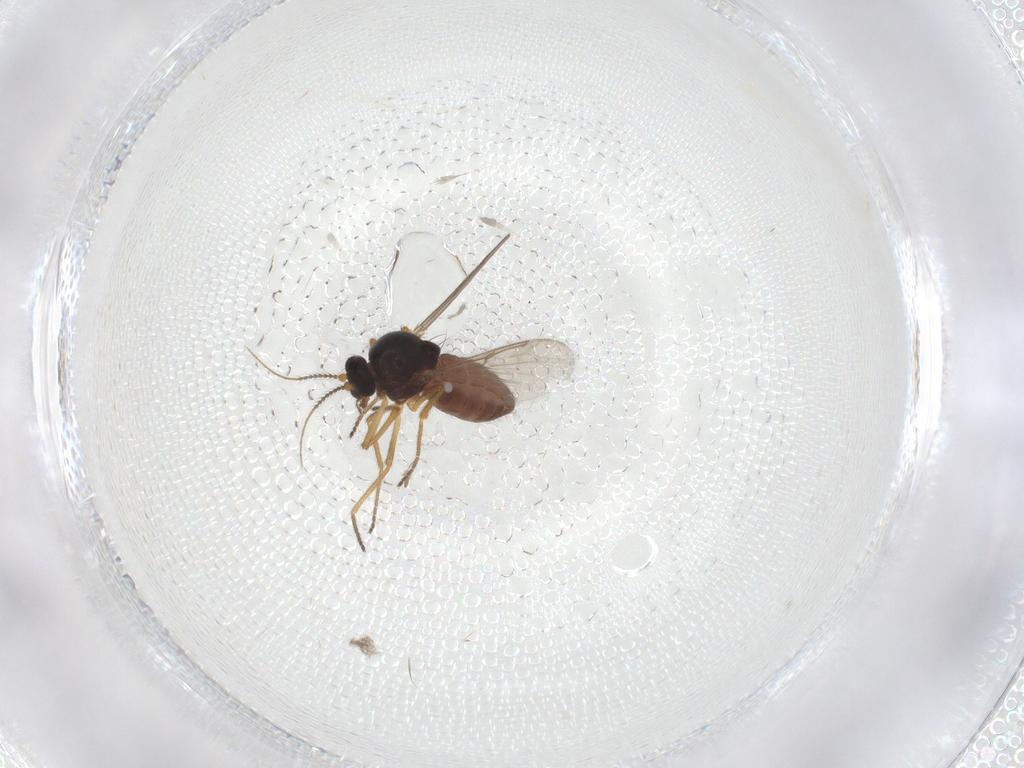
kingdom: Animalia
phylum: Arthropoda
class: Insecta
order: Diptera
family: Ceratopogonidae
